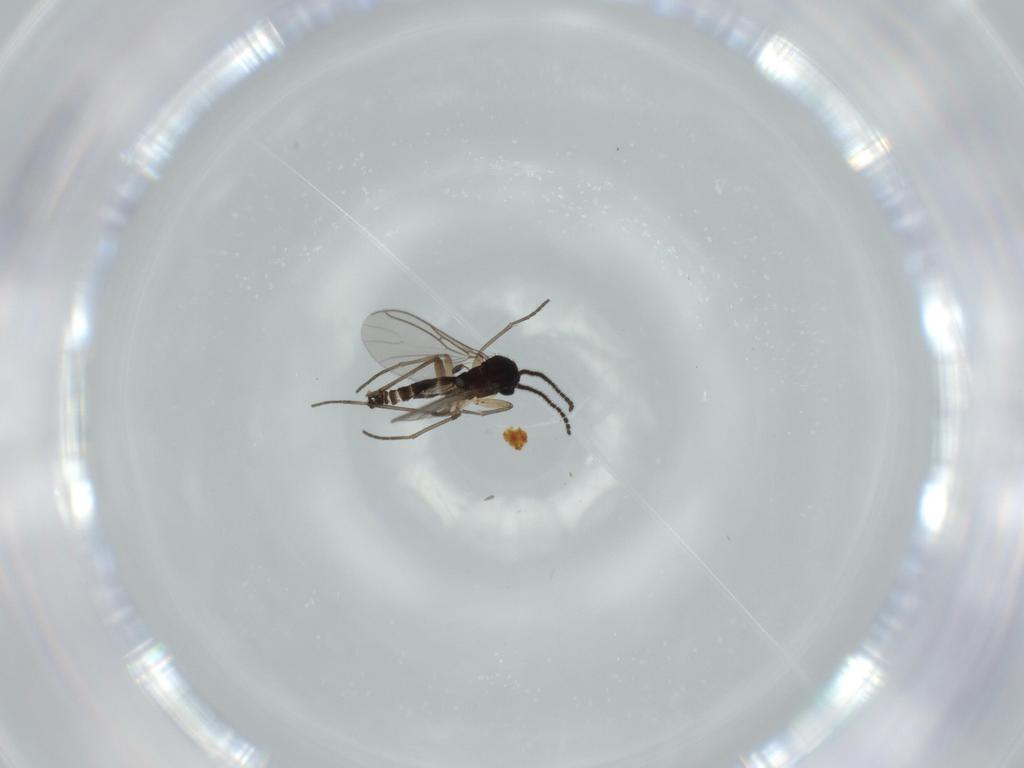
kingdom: Animalia
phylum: Arthropoda
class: Insecta
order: Diptera
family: Sciaridae
